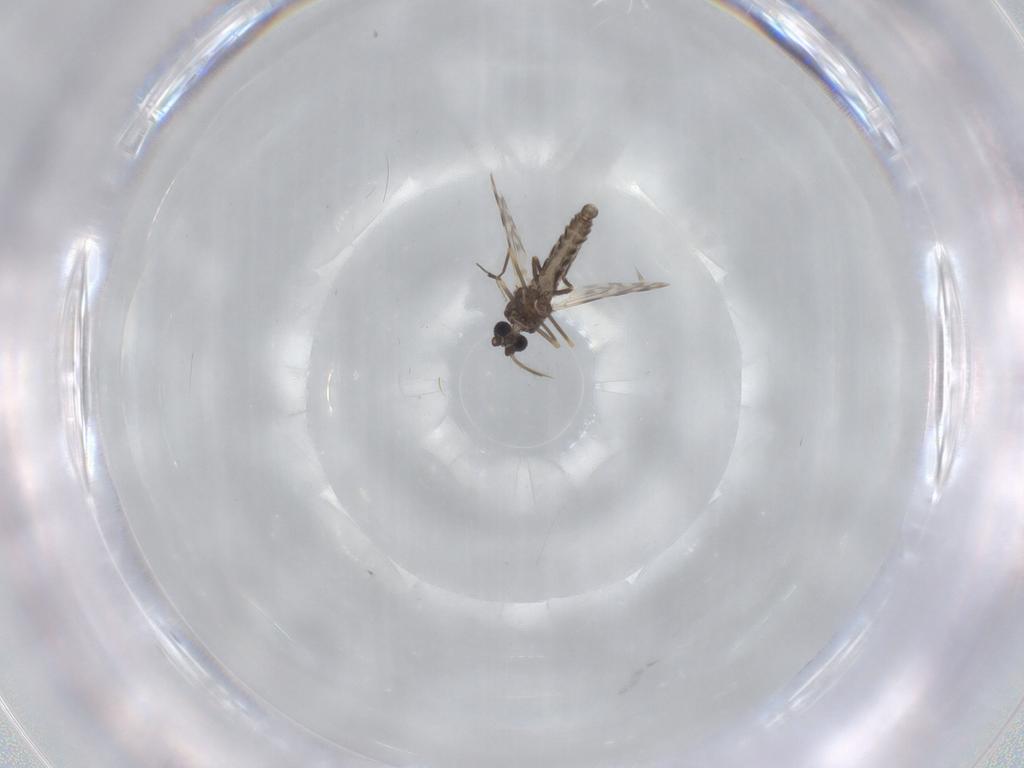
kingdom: Animalia
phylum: Arthropoda
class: Insecta
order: Diptera
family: Ceratopogonidae
